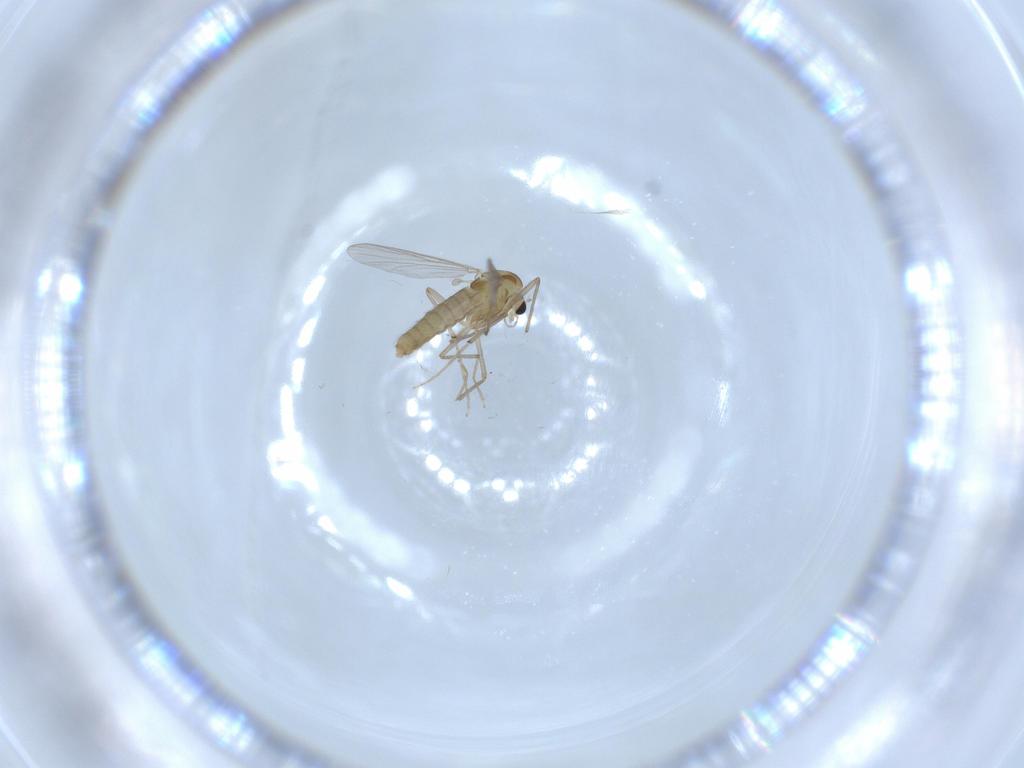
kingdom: Animalia
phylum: Arthropoda
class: Insecta
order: Diptera
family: Chironomidae
